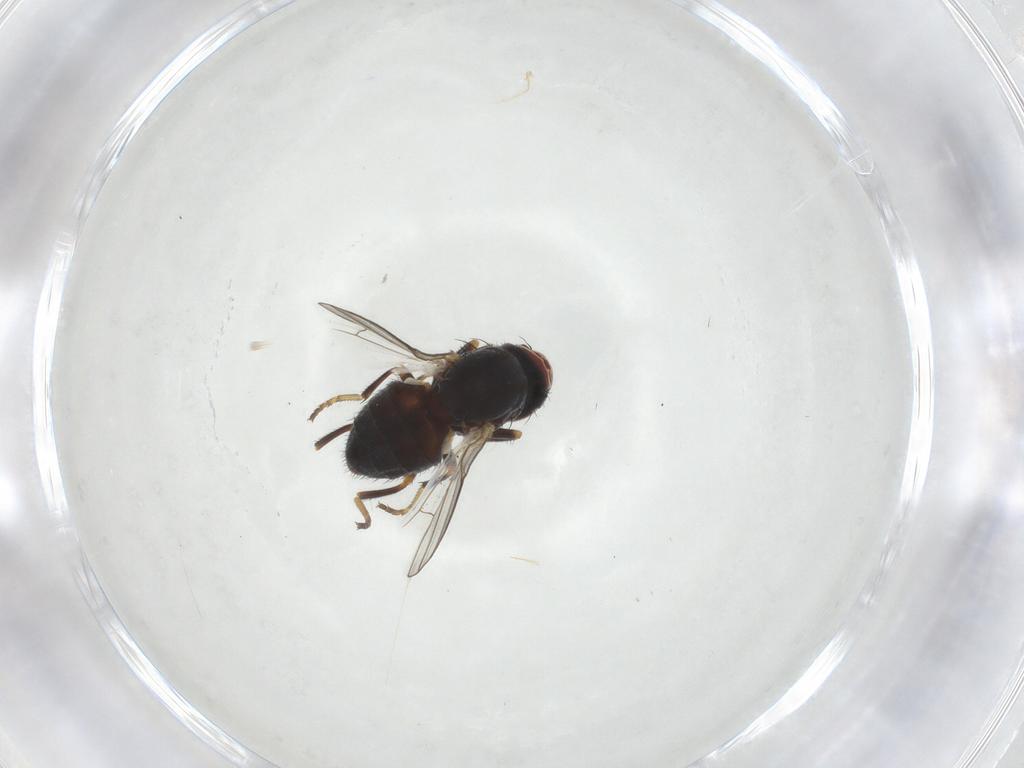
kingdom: Animalia
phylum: Arthropoda
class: Insecta
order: Diptera
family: Chamaemyiidae
